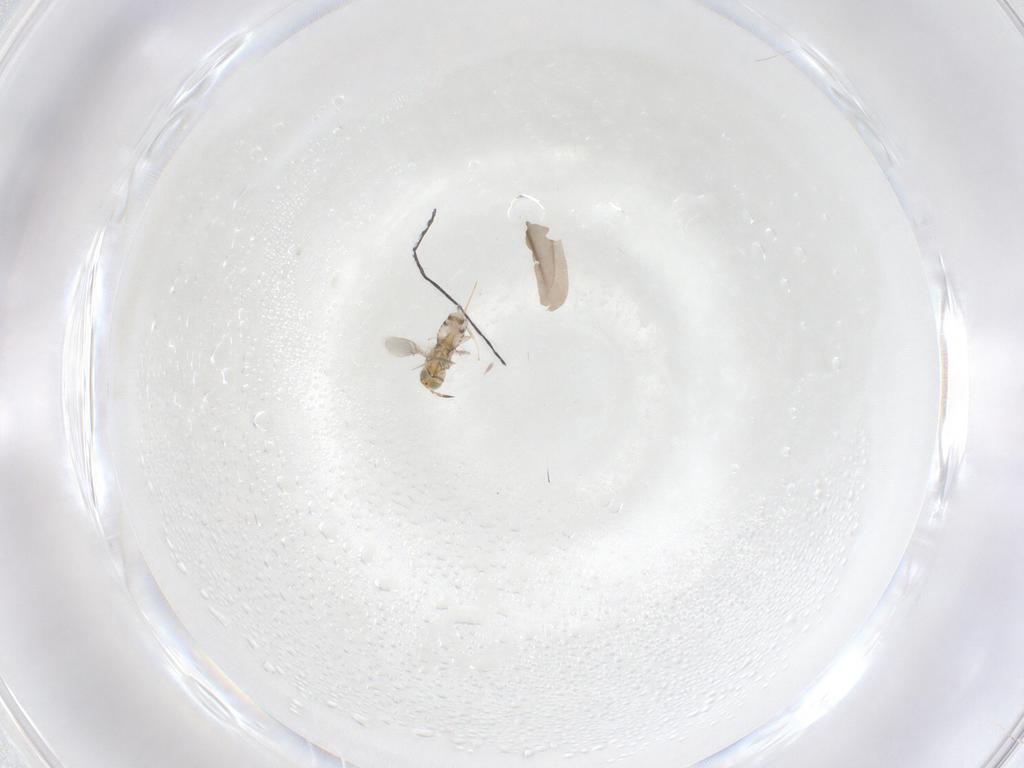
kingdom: Animalia
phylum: Arthropoda
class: Insecta
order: Hymenoptera
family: Aphelinidae
